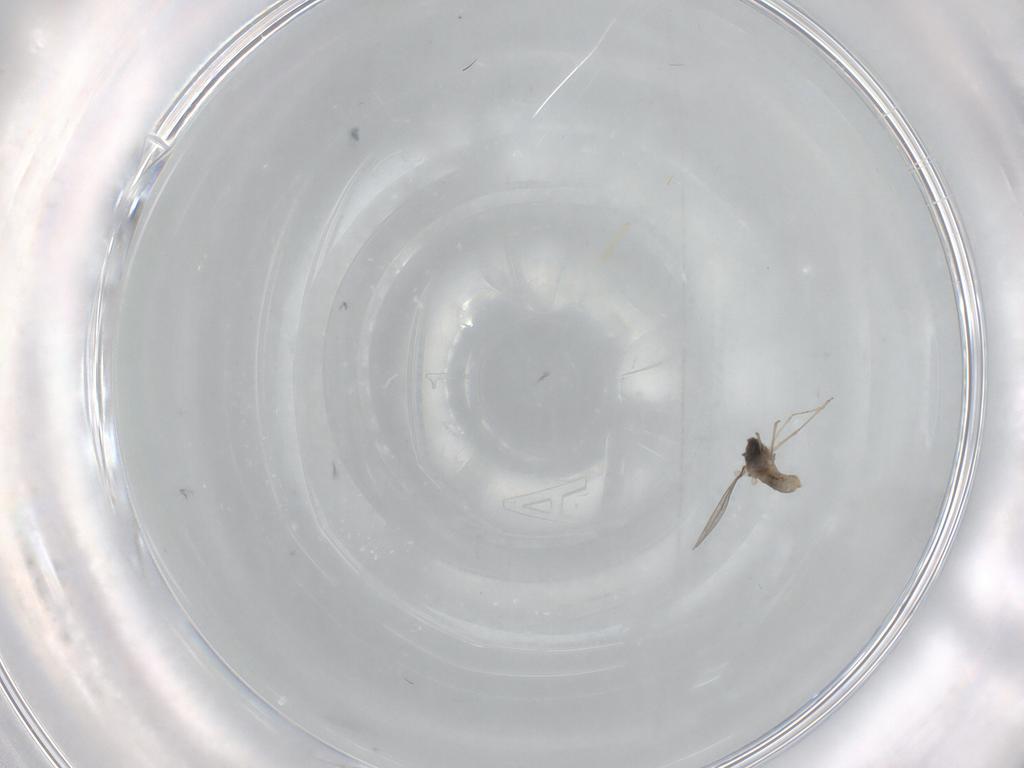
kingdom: Animalia
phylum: Arthropoda
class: Insecta
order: Diptera
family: Cecidomyiidae
